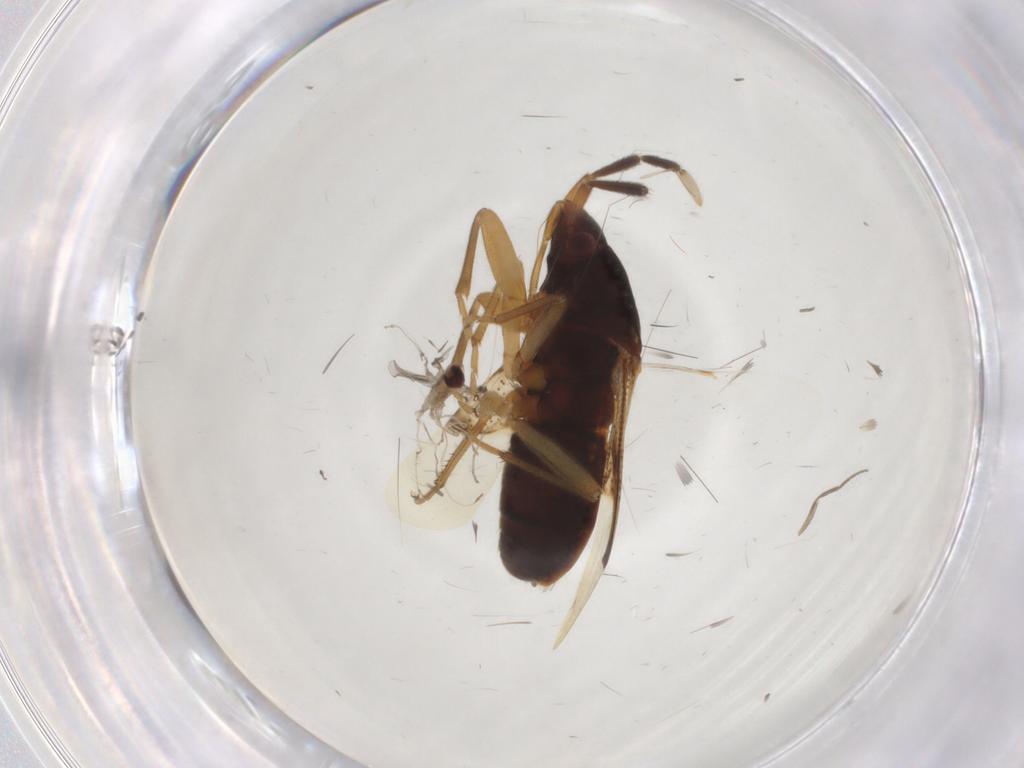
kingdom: Animalia
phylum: Arthropoda
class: Insecta
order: Hemiptera
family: Rhyparochromidae
